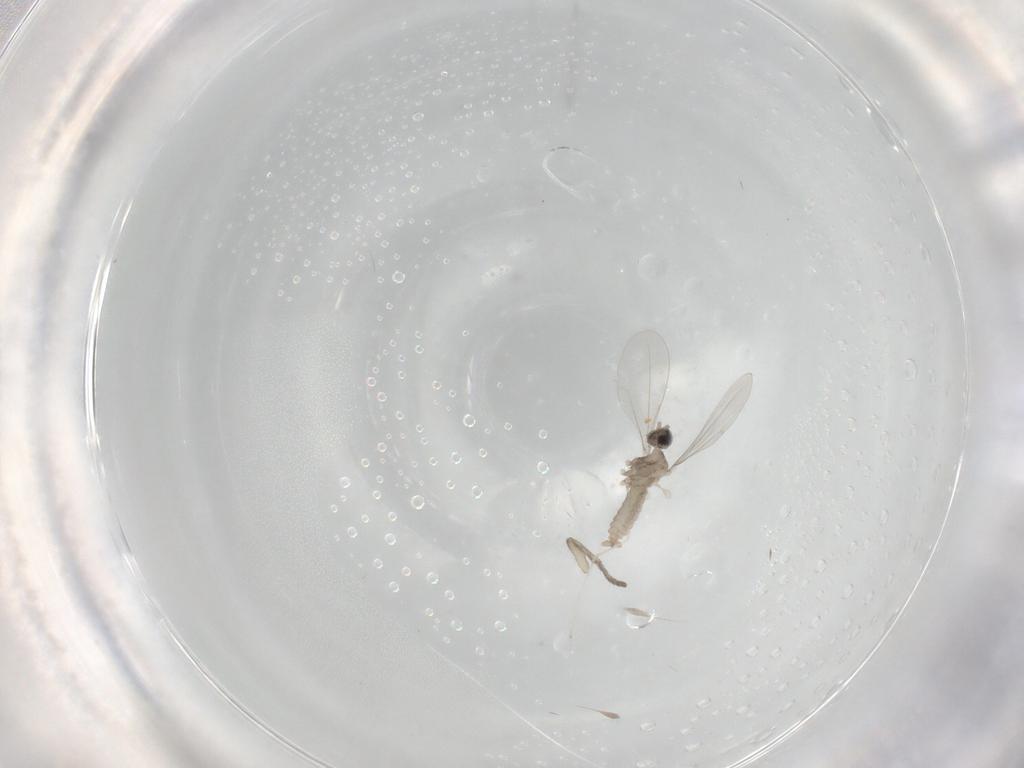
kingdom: Animalia
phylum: Arthropoda
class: Insecta
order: Diptera
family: Cecidomyiidae
